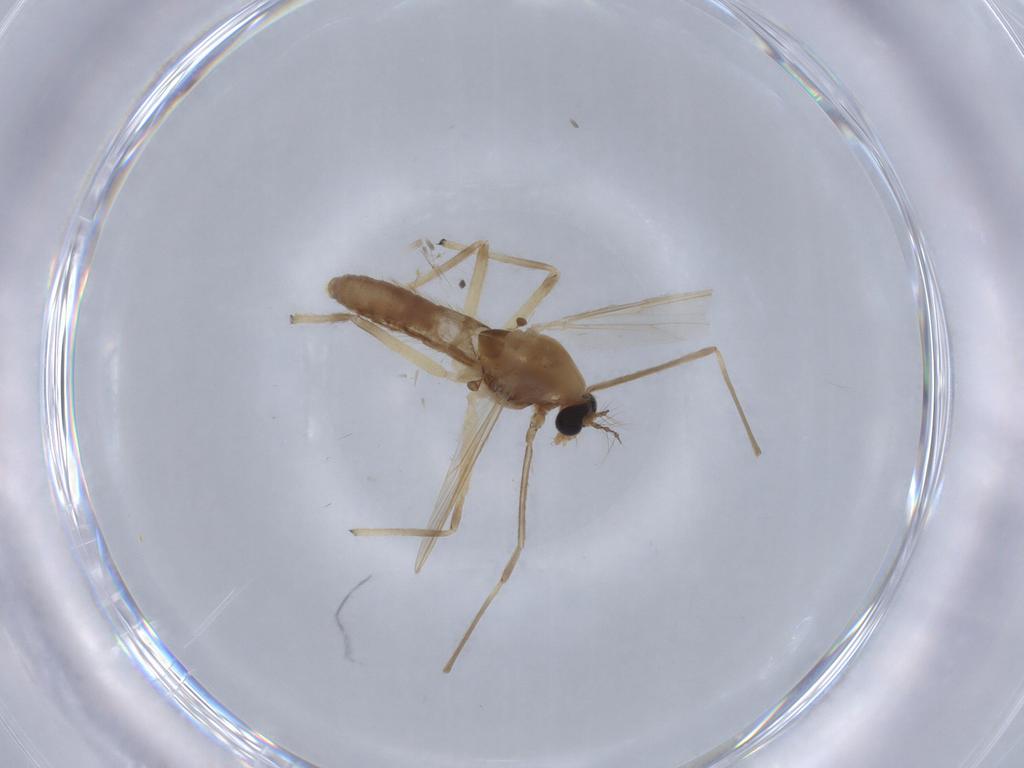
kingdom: Animalia
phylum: Arthropoda
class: Insecta
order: Diptera
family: Chironomidae
